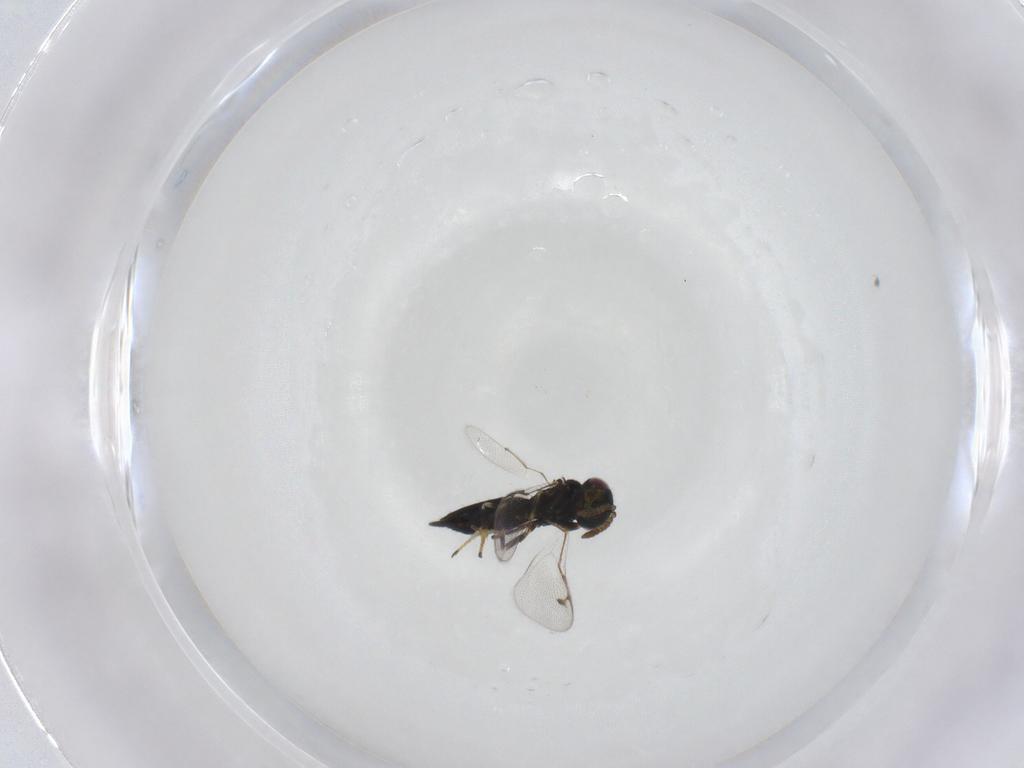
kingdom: Animalia
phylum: Arthropoda
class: Insecta
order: Hymenoptera
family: Pirenidae
